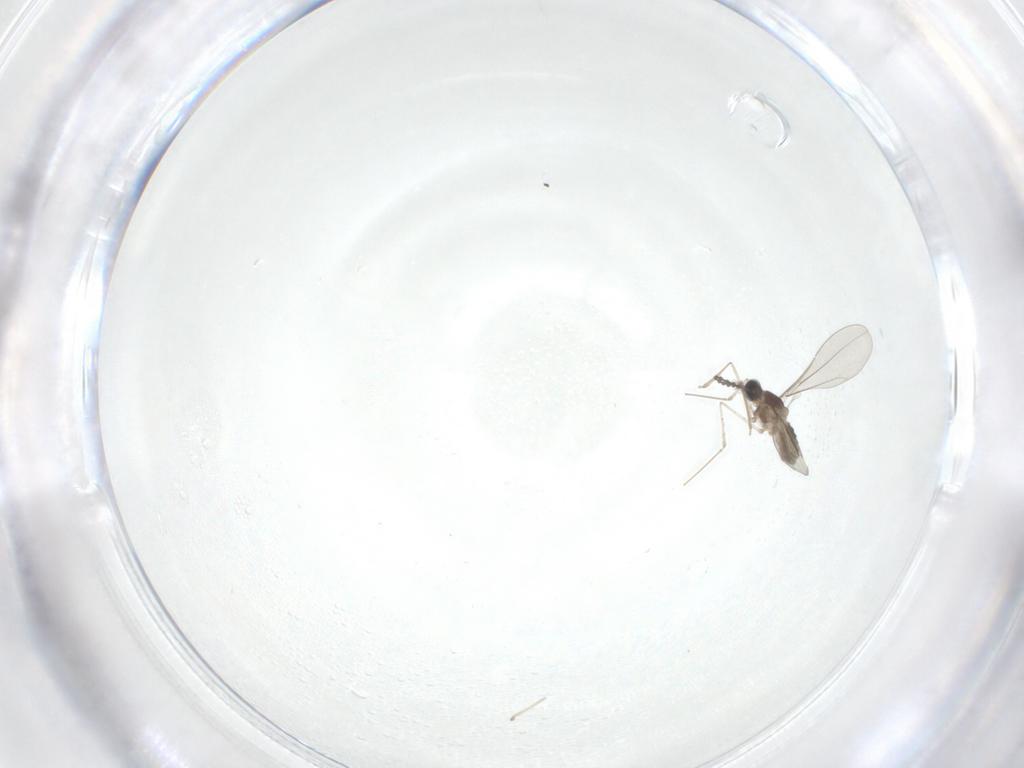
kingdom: Animalia
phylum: Arthropoda
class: Insecta
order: Diptera
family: Cecidomyiidae
